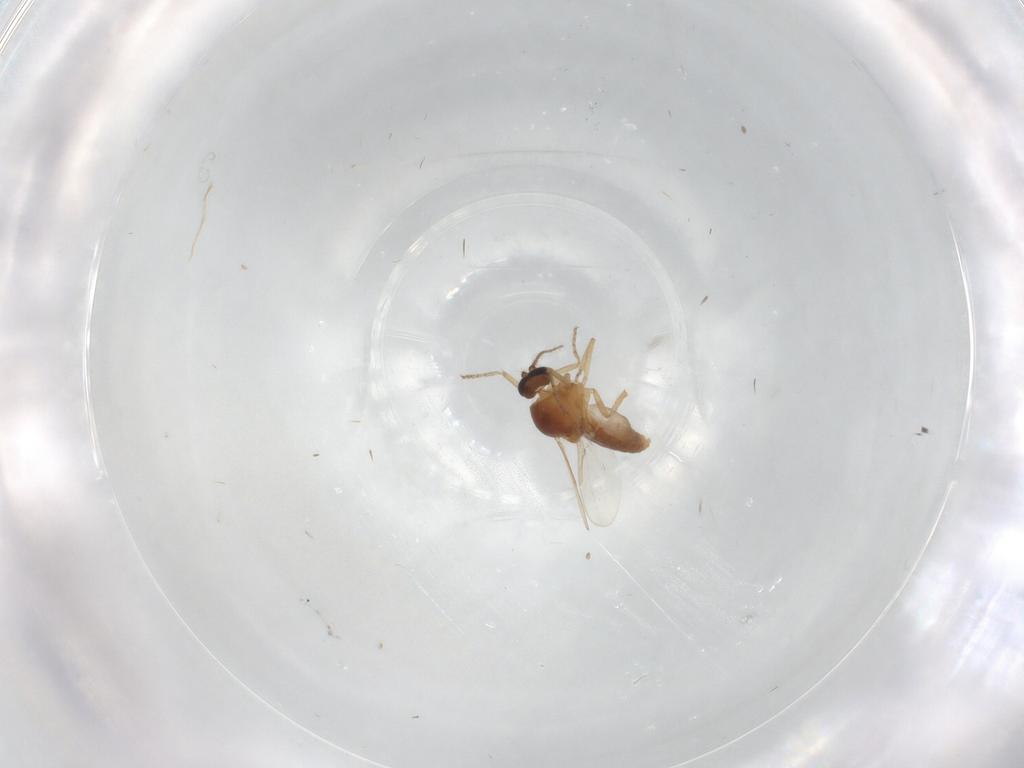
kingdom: Animalia
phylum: Arthropoda
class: Insecta
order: Diptera
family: Ceratopogonidae
